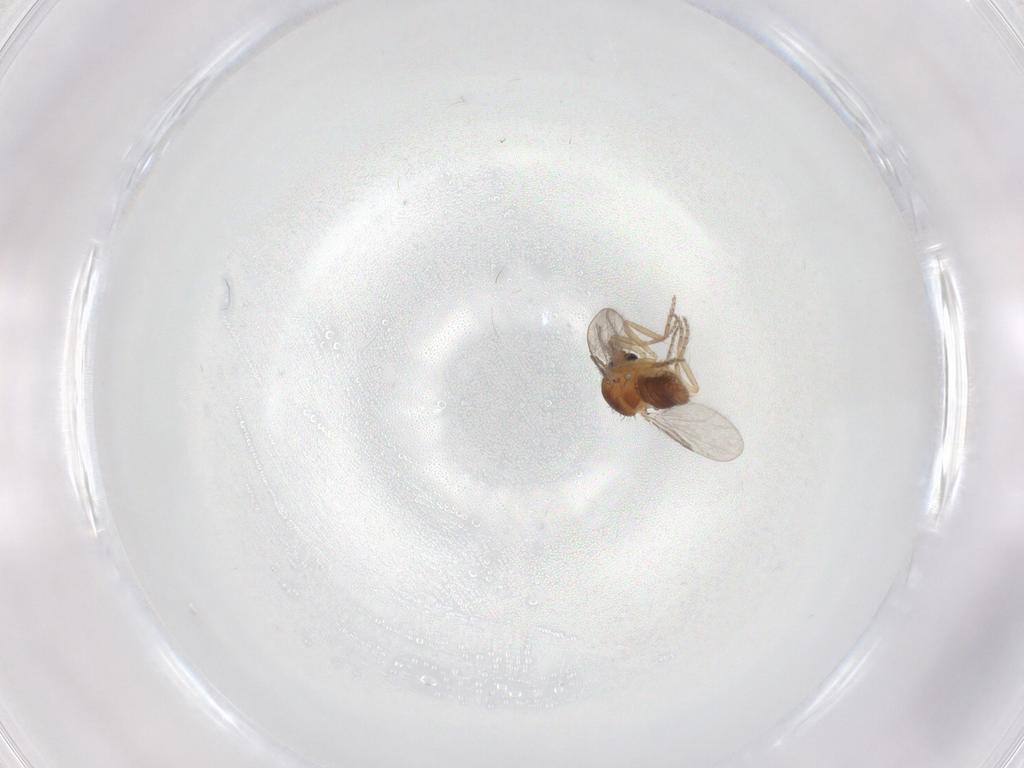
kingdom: Animalia
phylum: Arthropoda
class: Insecta
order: Diptera
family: Ceratopogonidae
